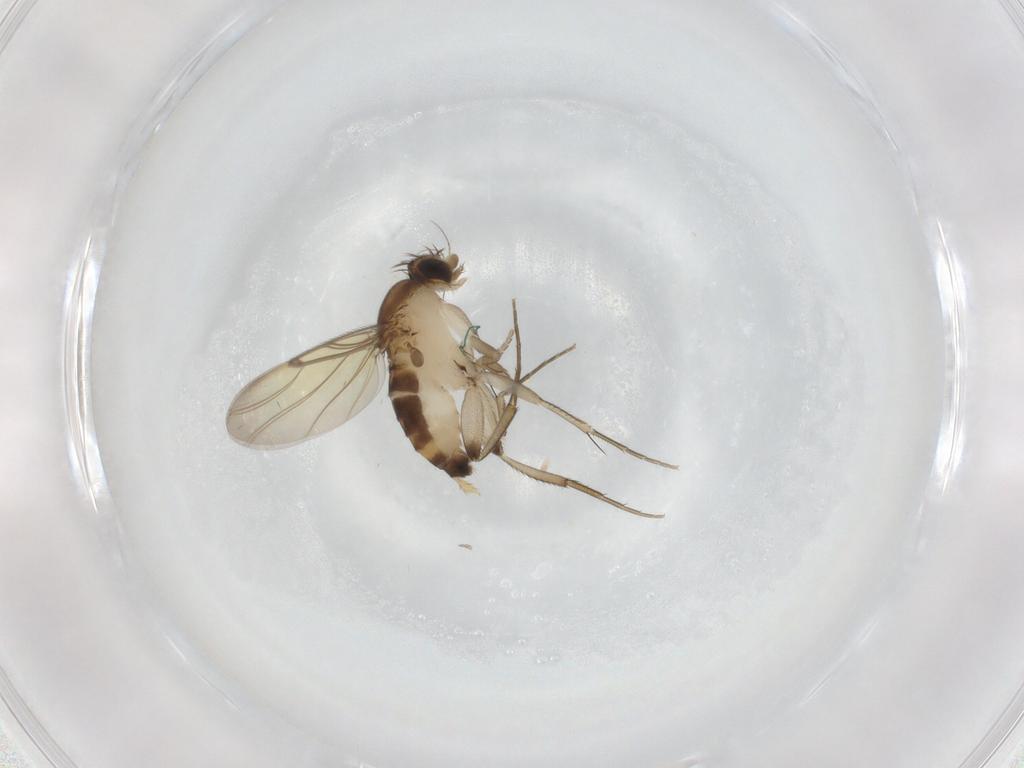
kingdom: Animalia
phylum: Arthropoda
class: Insecta
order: Diptera
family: Phoridae
